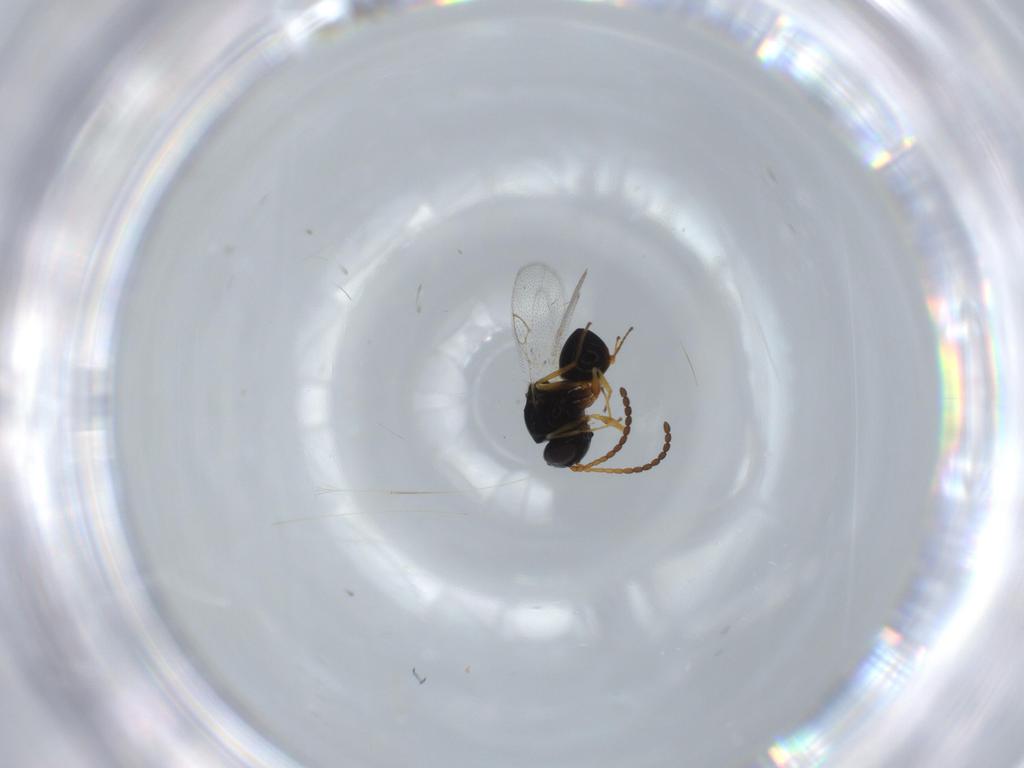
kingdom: Animalia
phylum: Arthropoda
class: Insecta
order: Hymenoptera
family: Figitidae
